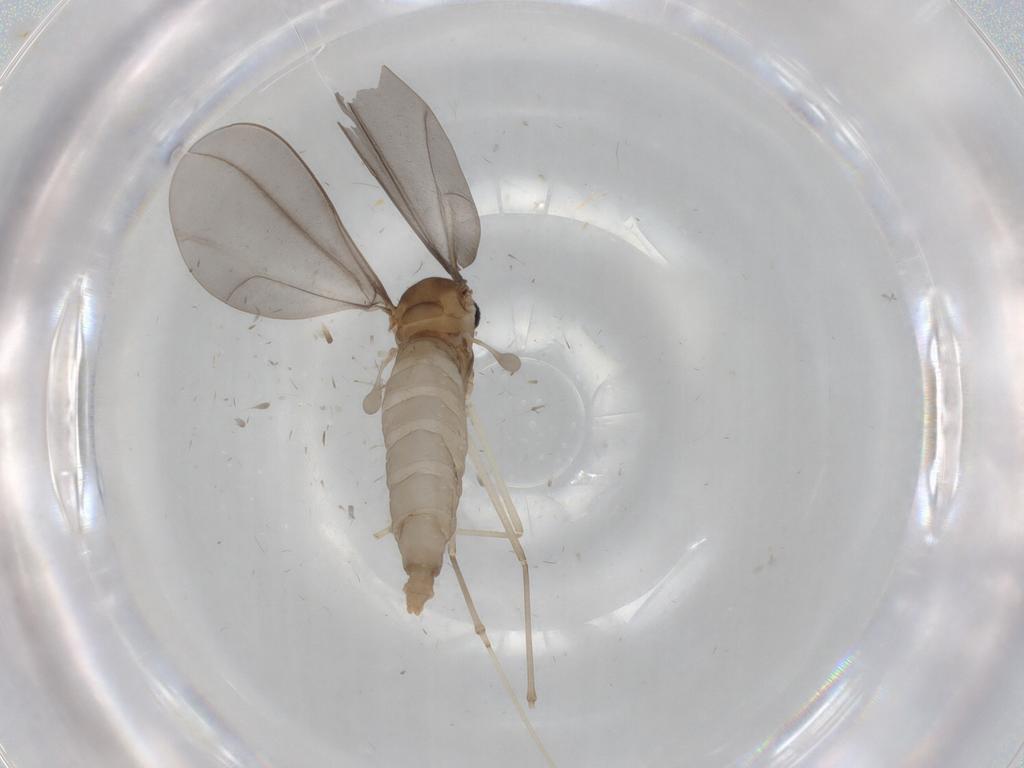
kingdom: Animalia
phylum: Arthropoda
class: Insecta
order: Diptera
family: Cecidomyiidae
